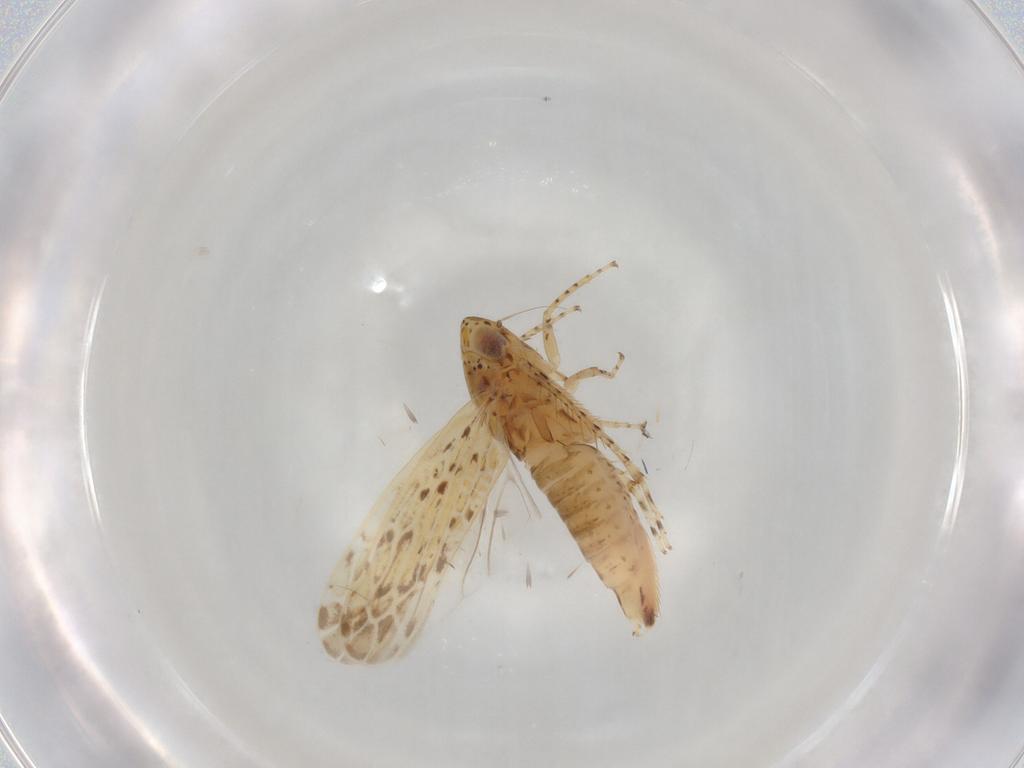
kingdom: Animalia
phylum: Arthropoda
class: Insecta
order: Hemiptera
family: Cicadellidae
